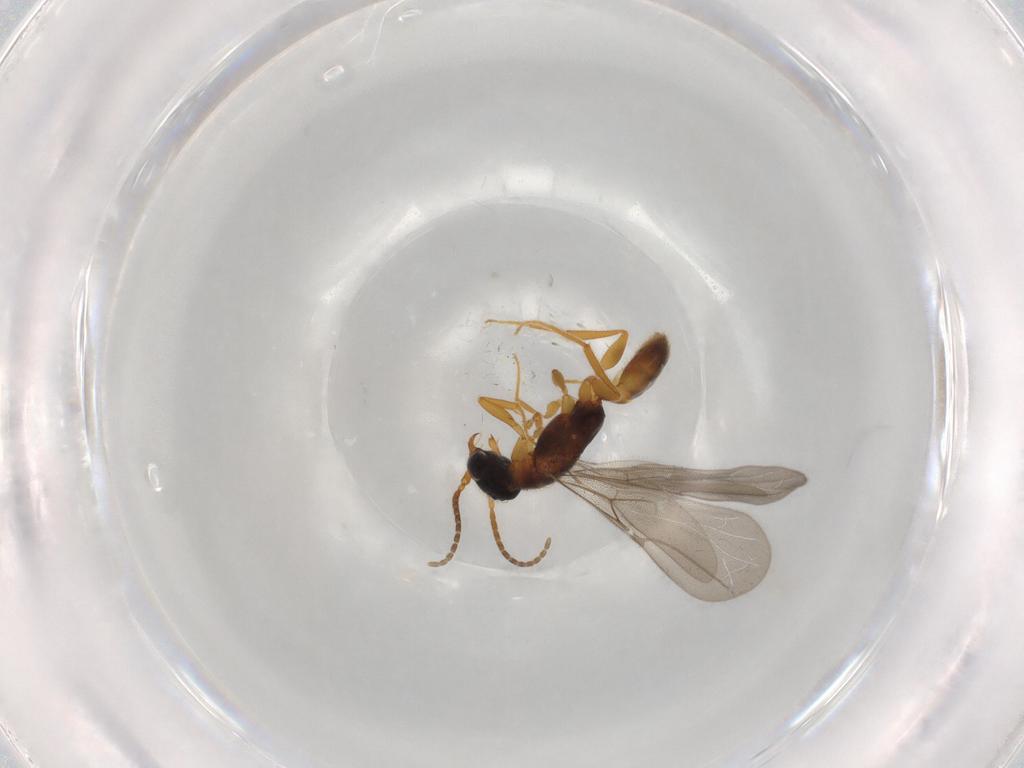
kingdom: Animalia
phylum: Arthropoda
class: Insecta
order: Hymenoptera
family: Bethylidae
